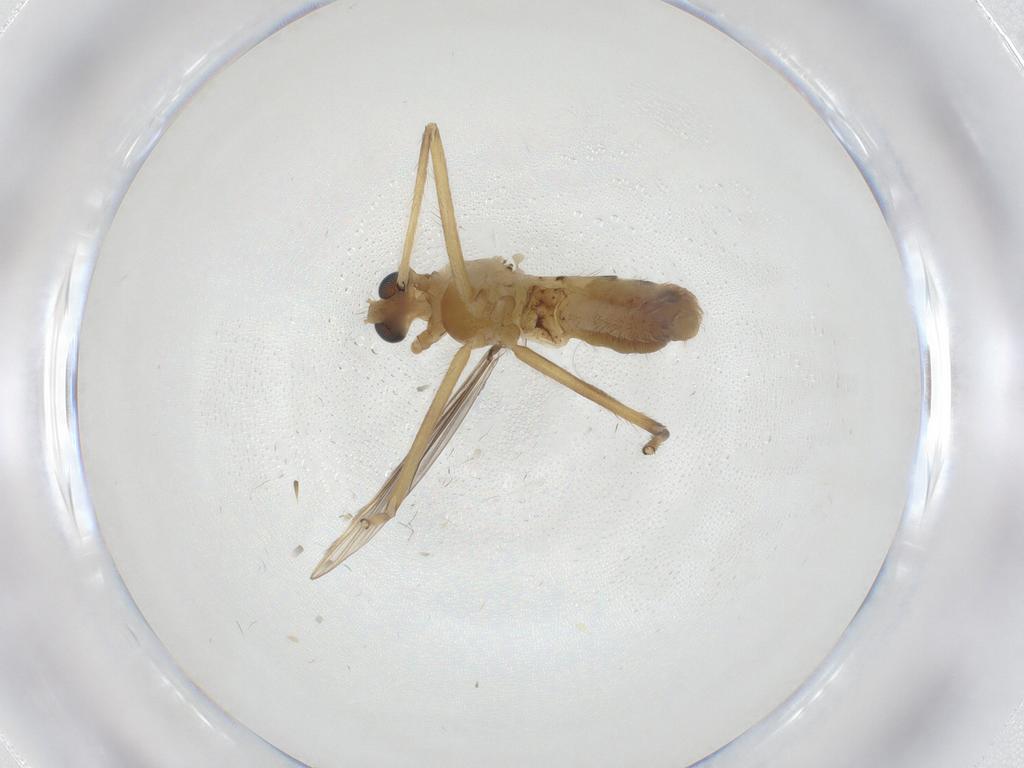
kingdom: Animalia
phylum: Arthropoda
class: Insecta
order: Diptera
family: Chironomidae
